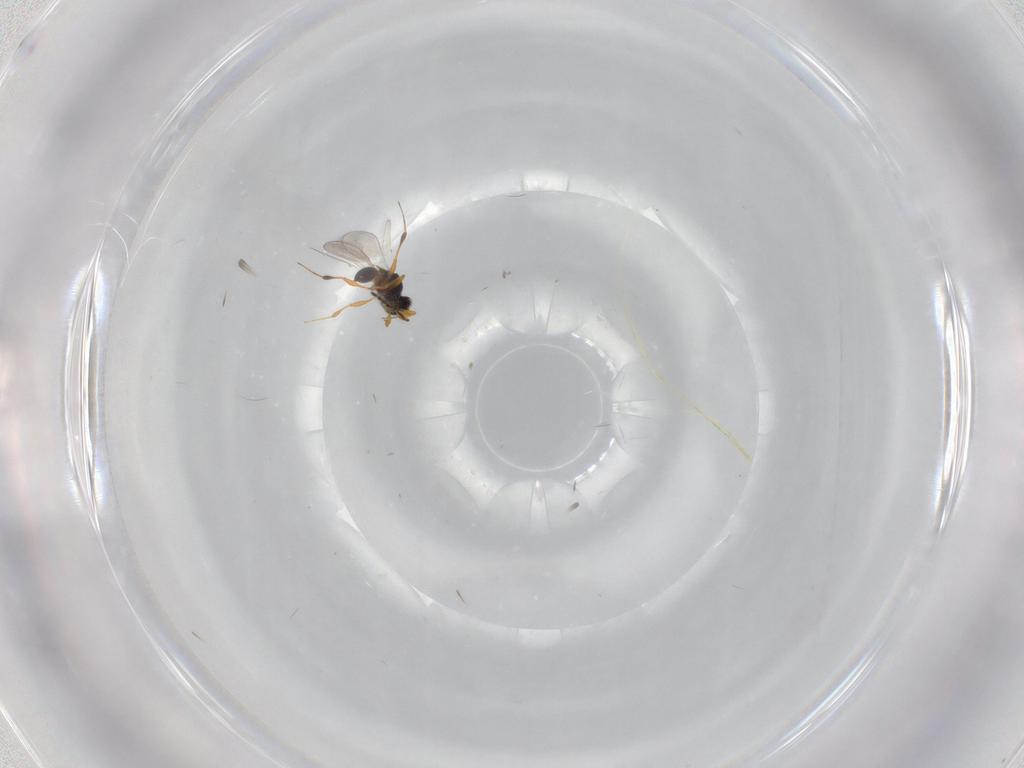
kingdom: Animalia
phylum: Arthropoda
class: Insecta
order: Hymenoptera
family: Platygastridae
